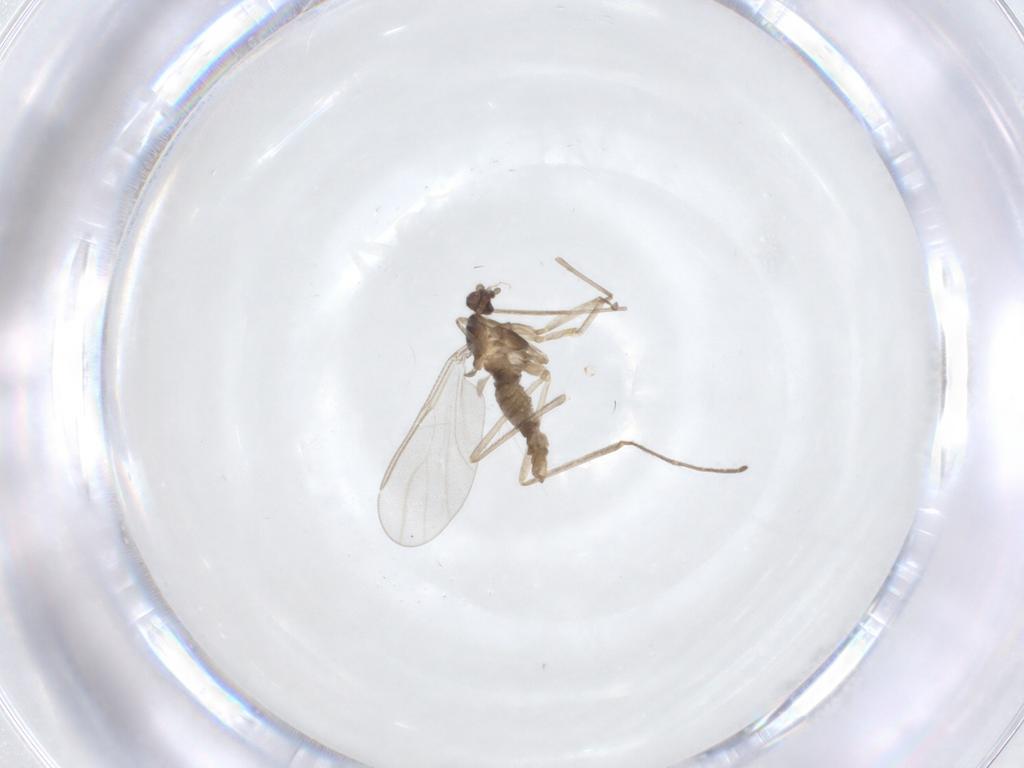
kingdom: Animalia
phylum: Arthropoda
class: Insecta
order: Diptera
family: Cecidomyiidae
